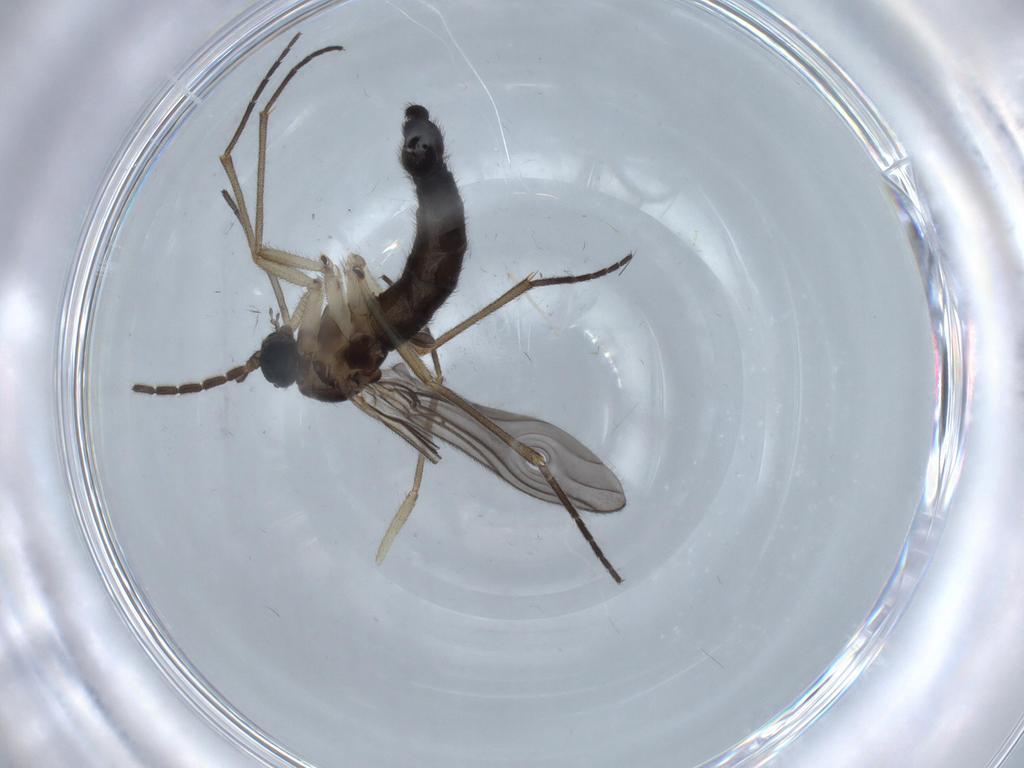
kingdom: Animalia
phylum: Arthropoda
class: Insecta
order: Diptera
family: Sciaridae
